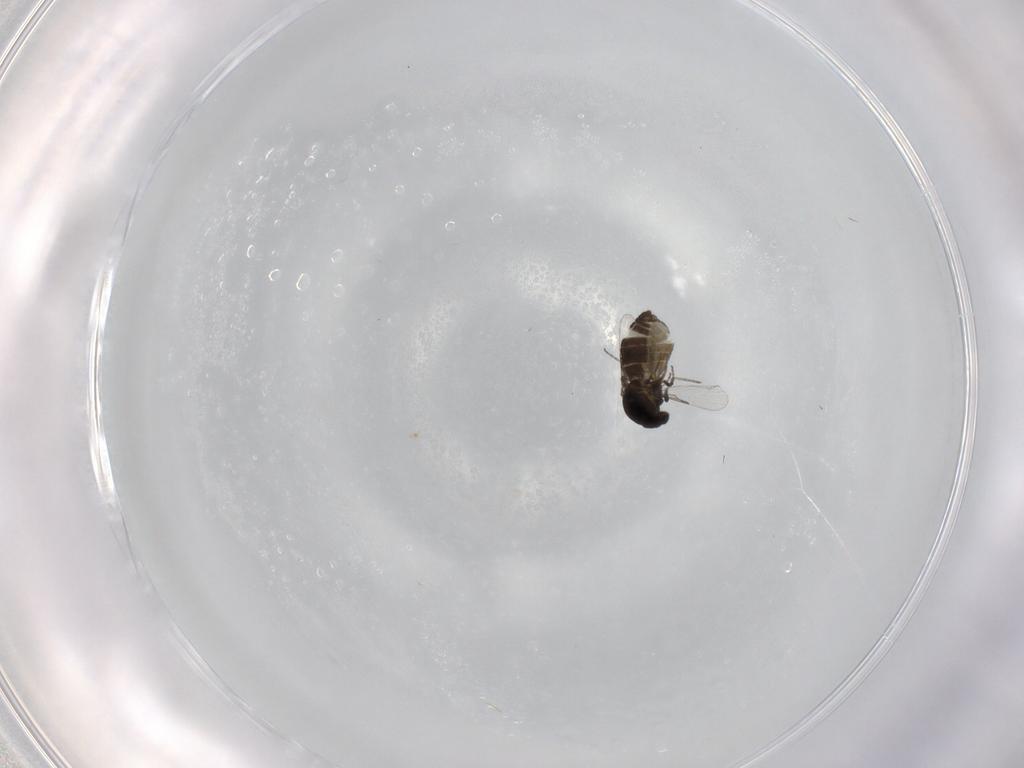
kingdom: Animalia
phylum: Arthropoda
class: Insecta
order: Diptera
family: Ceratopogonidae
